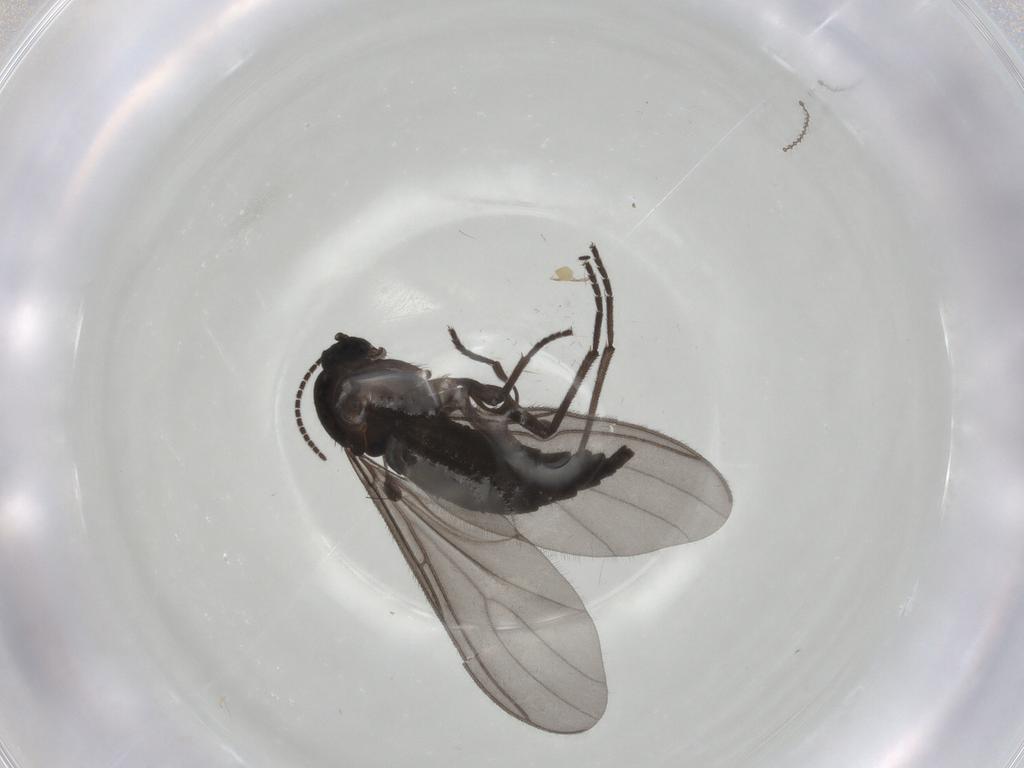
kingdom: Animalia
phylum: Arthropoda
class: Insecta
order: Diptera
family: Sciaridae
